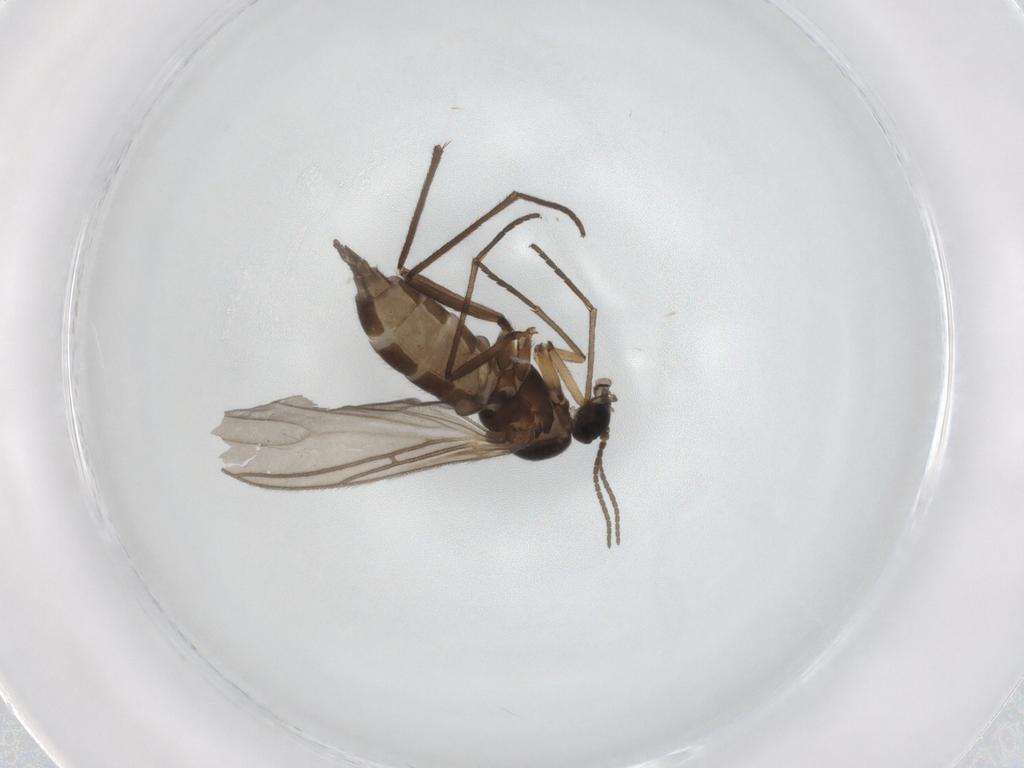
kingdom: Animalia
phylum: Arthropoda
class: Insecta
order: Diptera
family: Sciaridae
